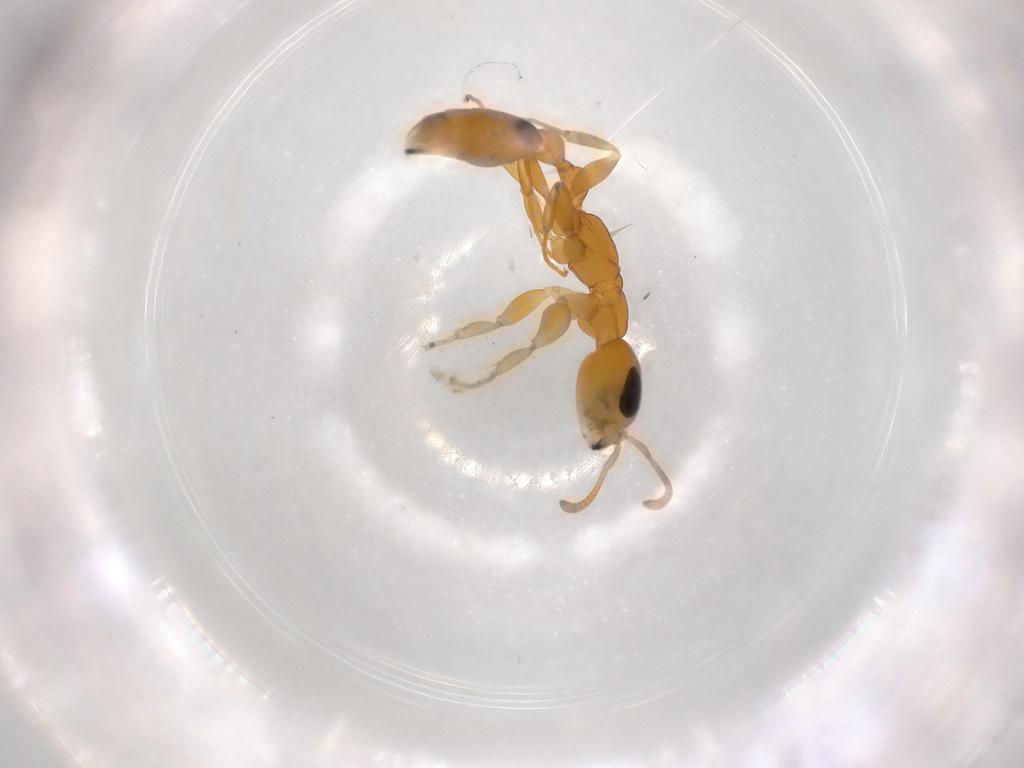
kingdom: Animalia
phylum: Arthropoda
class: Insecta
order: Hymenoptera
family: Formicidae
